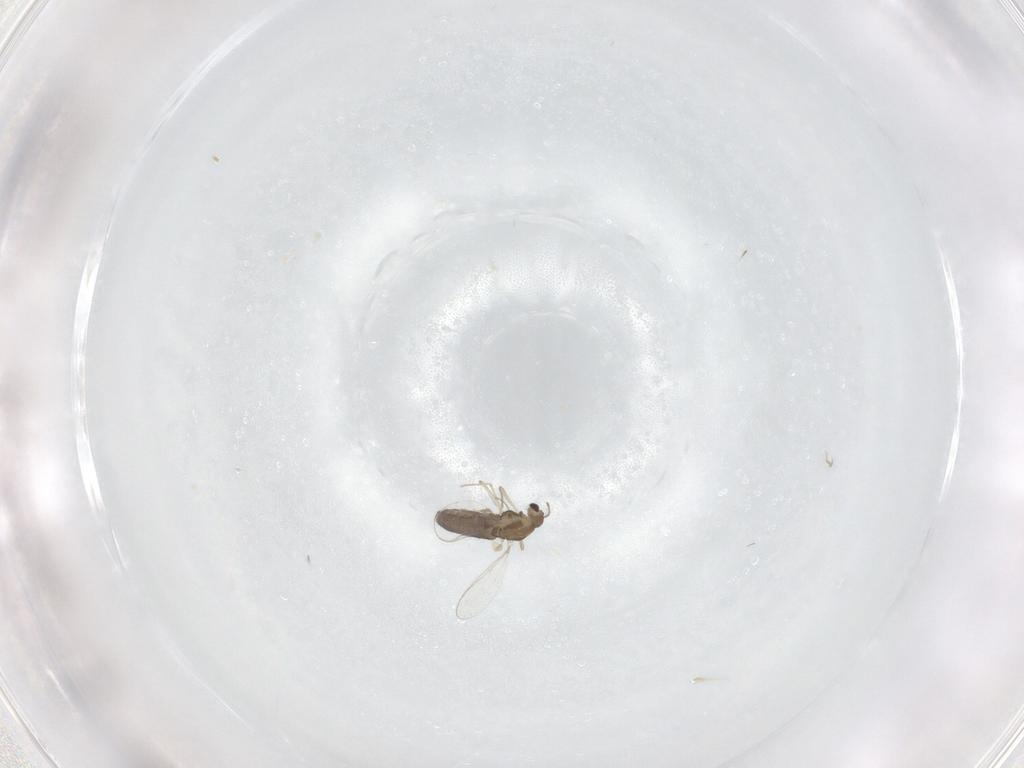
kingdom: Animalia
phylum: Arthropoda
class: Insecta
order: Diptera
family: Chironomidae
